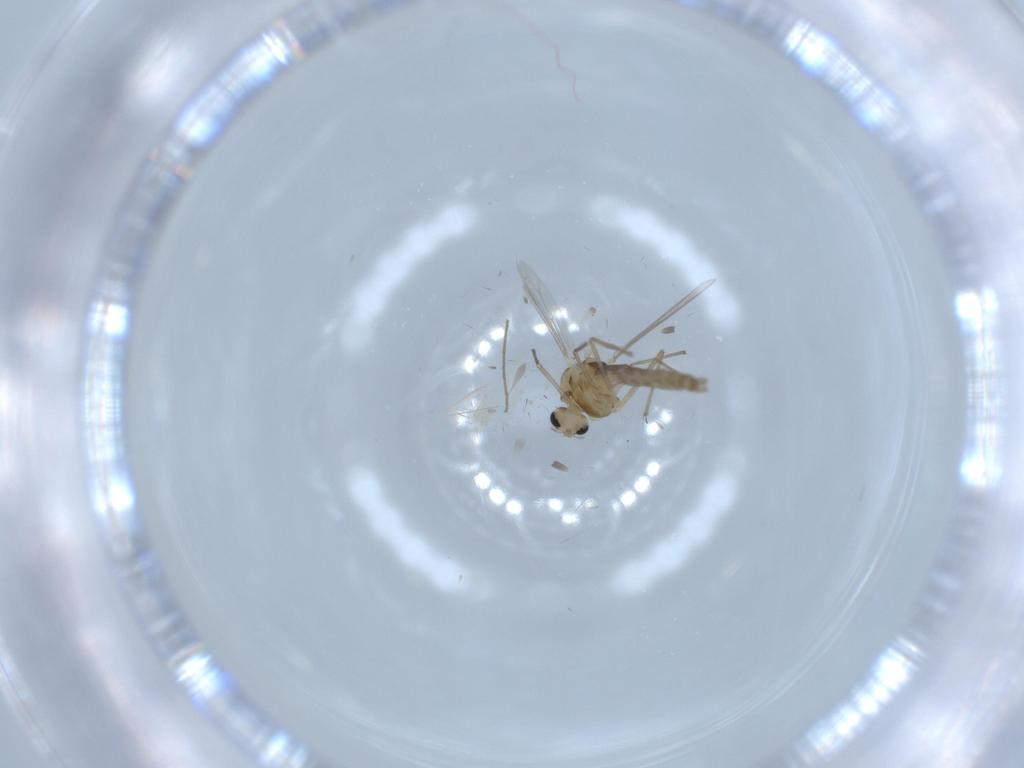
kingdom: Animalia
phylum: Arthropoda
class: Insecta
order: Diptera
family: Chironomidae
